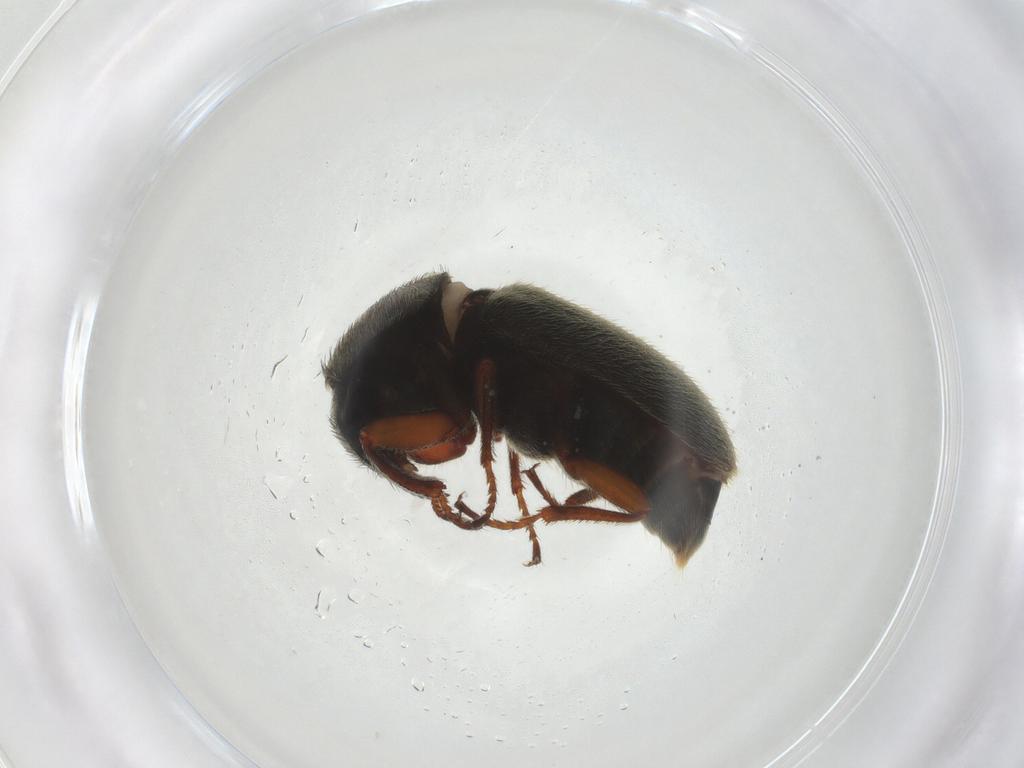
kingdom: Animalia
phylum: Arthropoda
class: Insecta
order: Coleoptera
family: Melyridae
